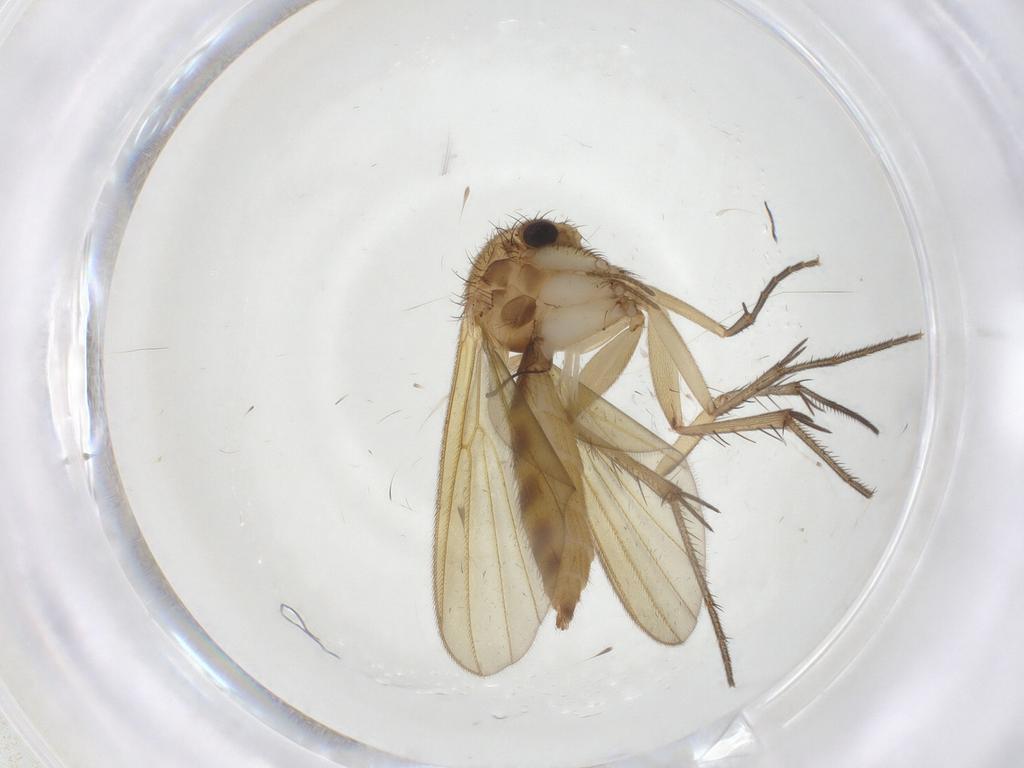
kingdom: Animalia
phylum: Arthropoda
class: Insecta
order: Diptera
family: Mycetophilidae
